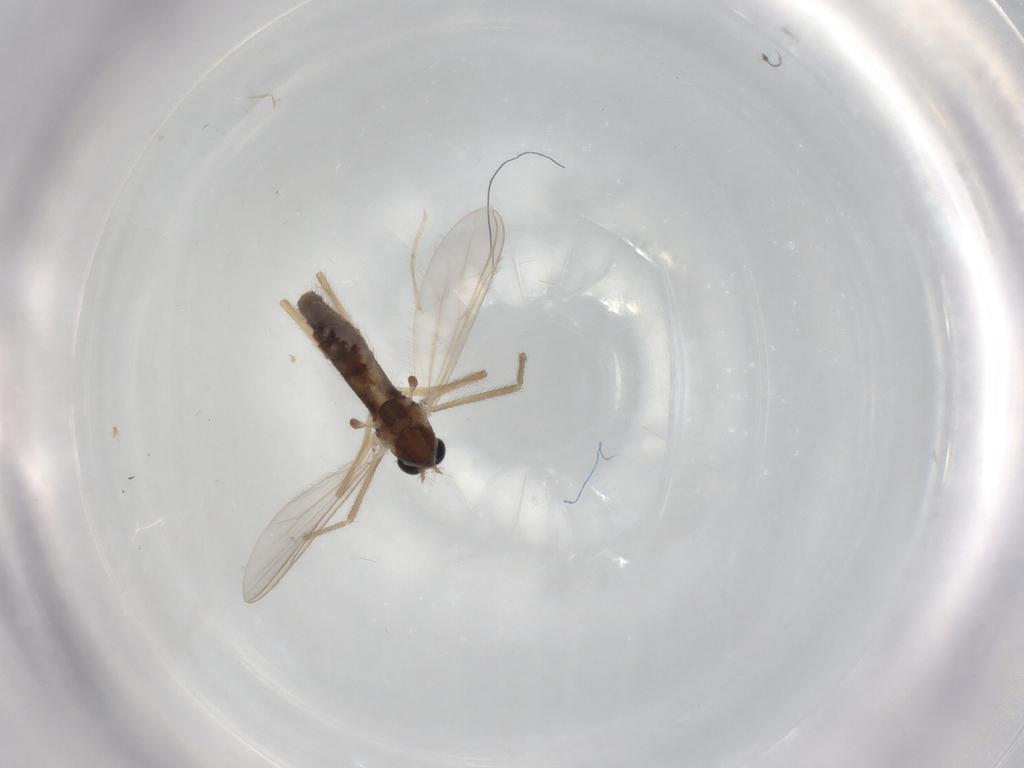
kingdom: Animalia
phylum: Arthropoda
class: Insecta
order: Diptera
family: Chironomidae
